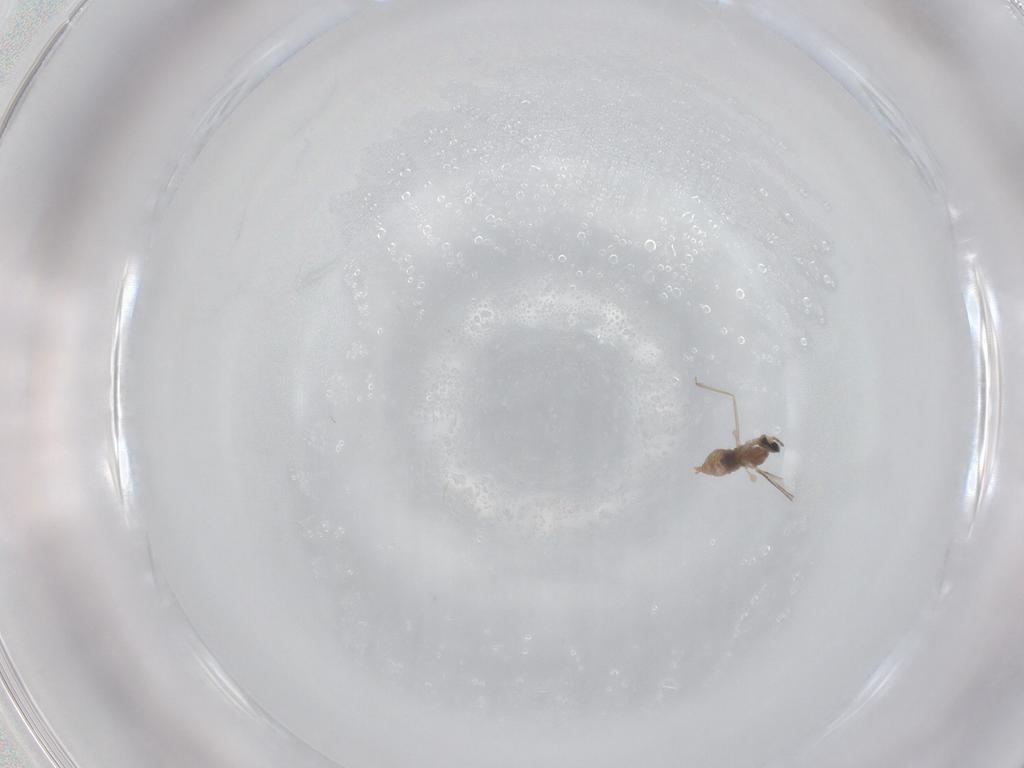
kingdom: Animalia
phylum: Arthropoda
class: Insecta
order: Diptera
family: Cecidomyiidae
